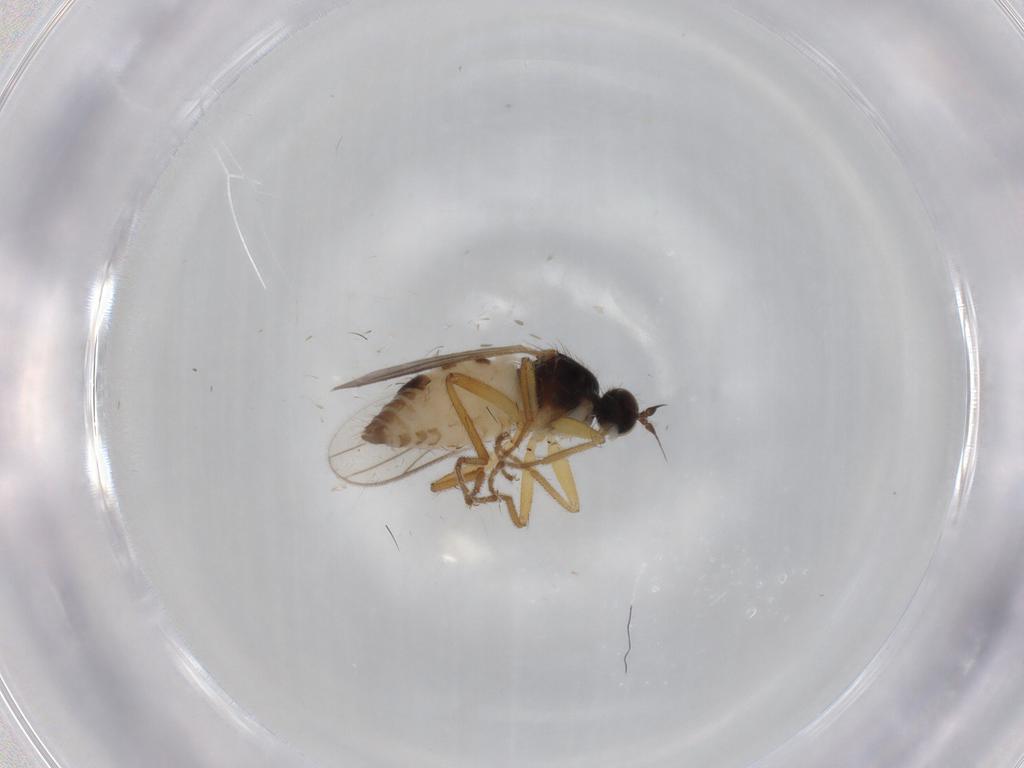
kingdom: Animalia
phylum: Arthropoda
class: Insecta
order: Diptera
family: Hybotidae
